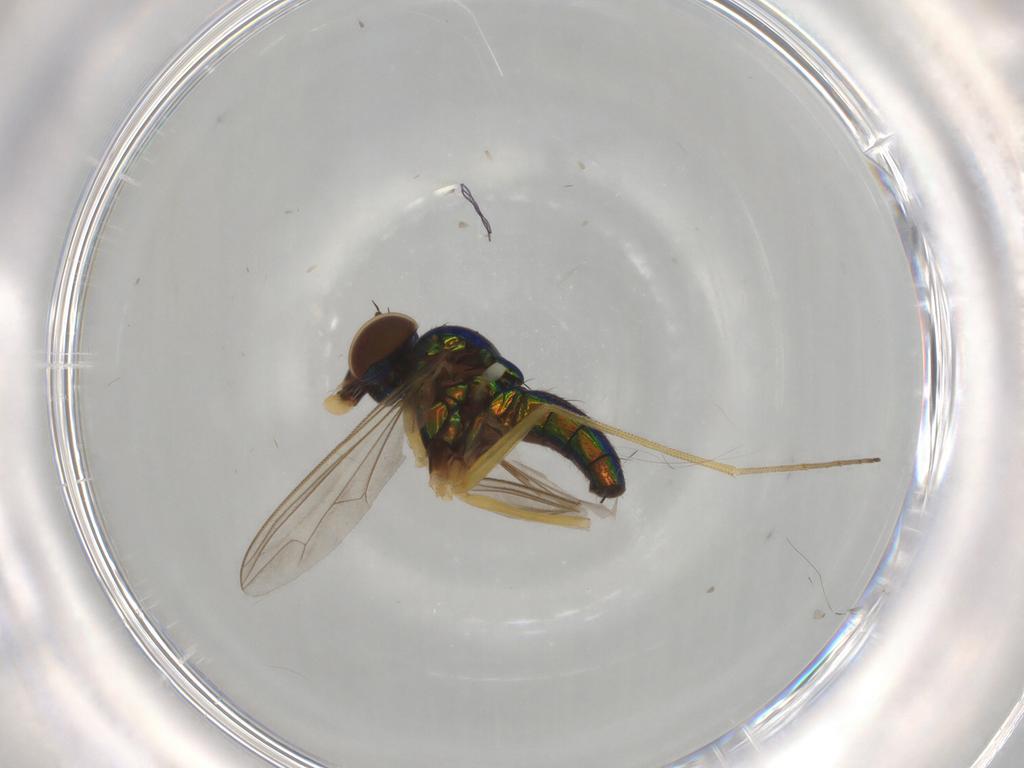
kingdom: Animalia
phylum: Arthropoda
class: Insecta
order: Diptera
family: Dolichopodidae
